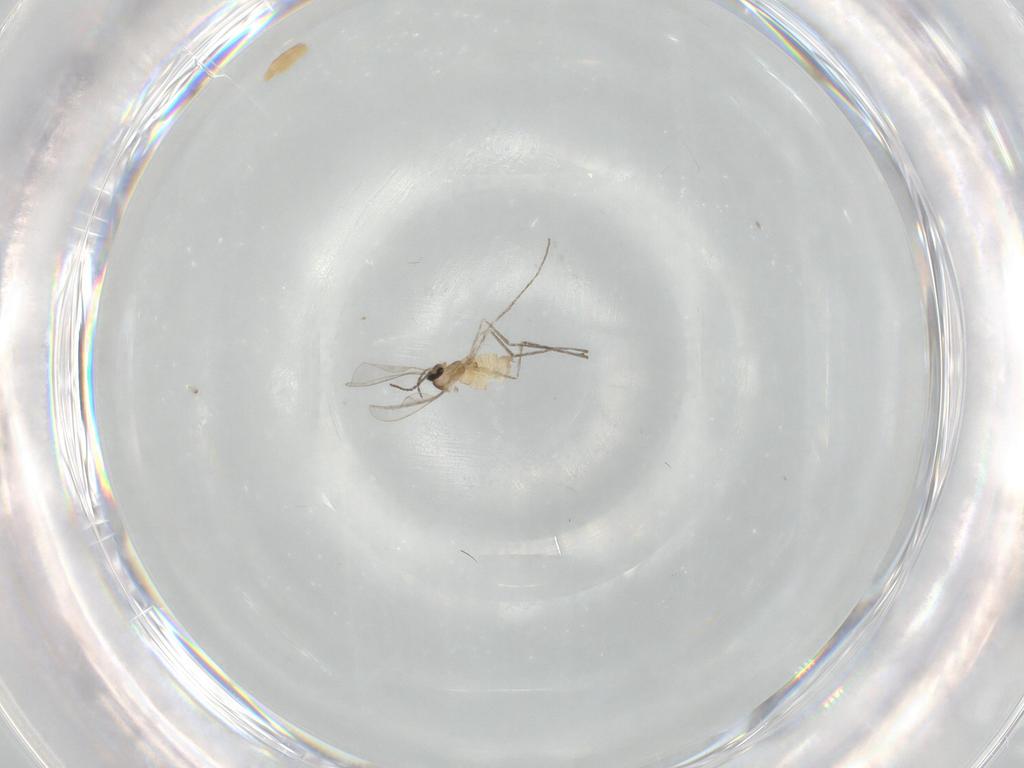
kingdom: Animalia
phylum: Arthropoda
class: Insecta
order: Diptera
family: Cecidomyiidae
